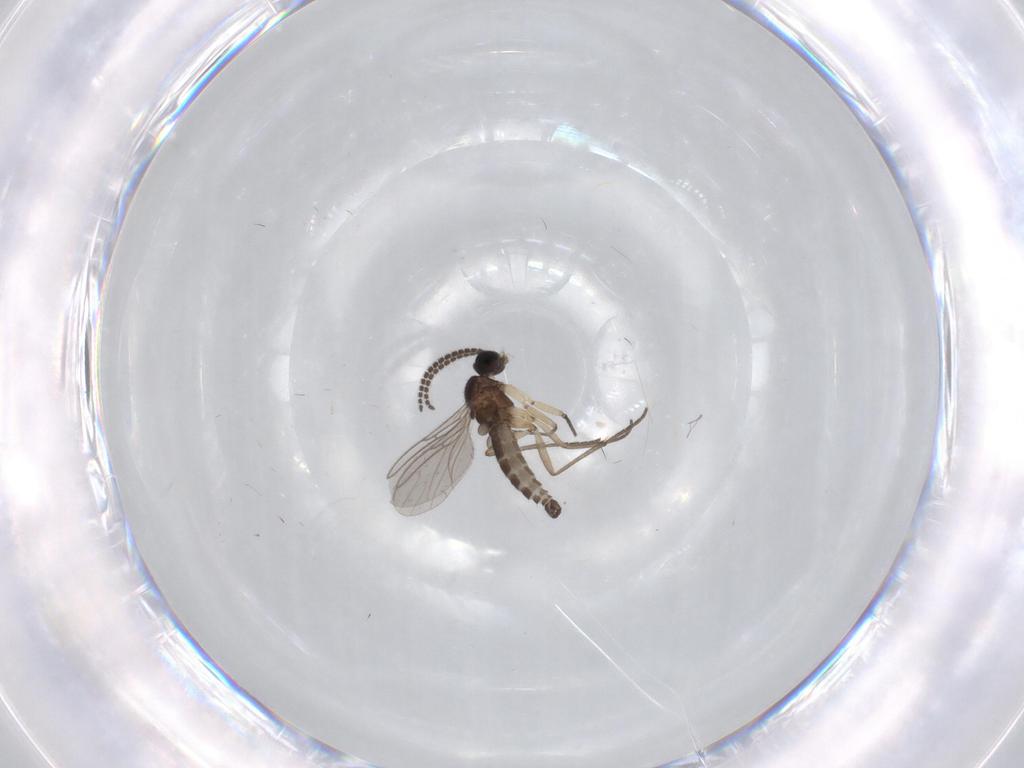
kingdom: Animalia
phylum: Arthropoda
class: Insecta
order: Diptera
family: Sciaridae
